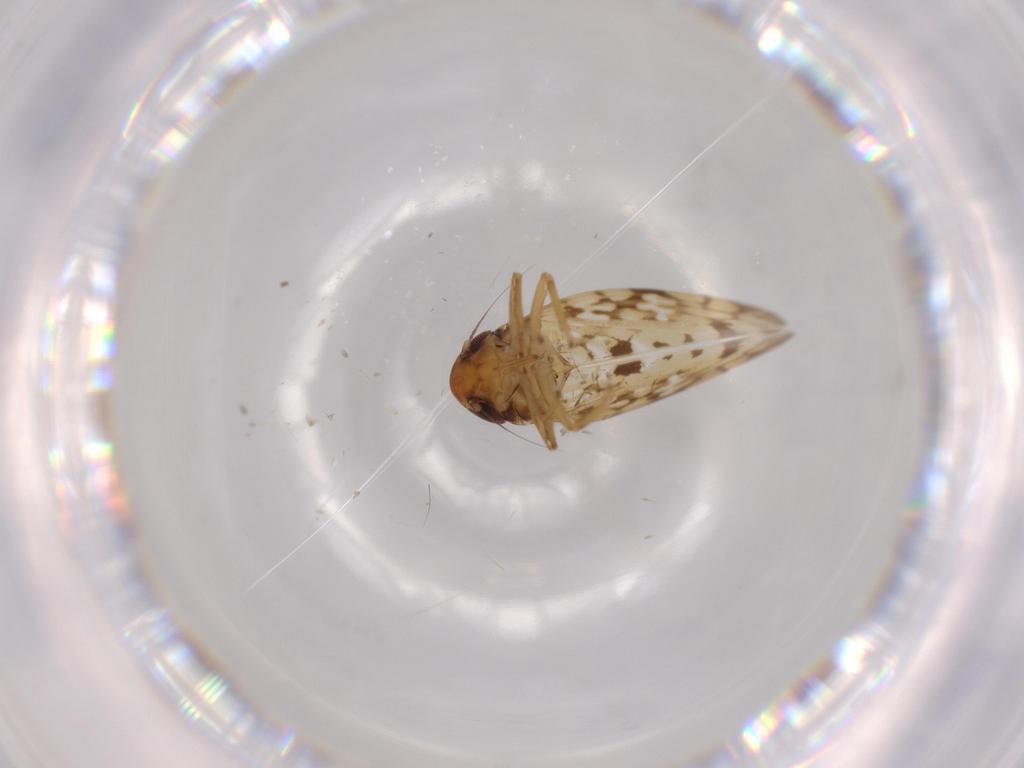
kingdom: Animalia
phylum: Arthropoda
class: Insecta
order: Hemiptera
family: Cicadellidae
